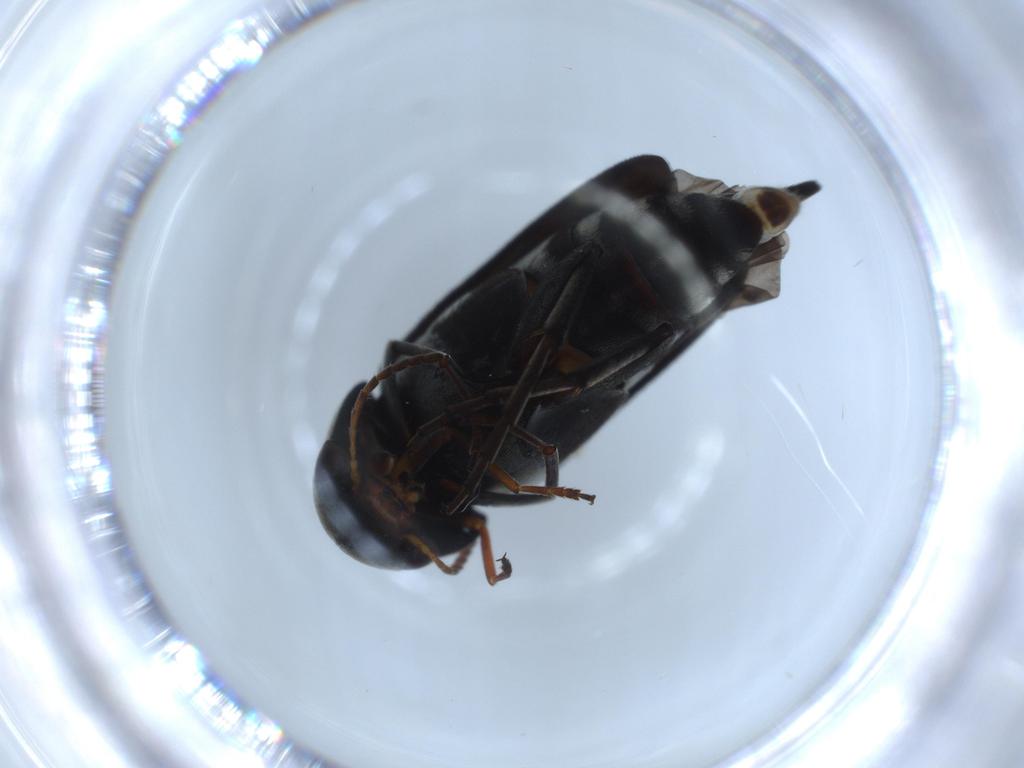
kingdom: Animalia
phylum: Arthropoda
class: Insecta
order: Coleoptera
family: Mordellidae
